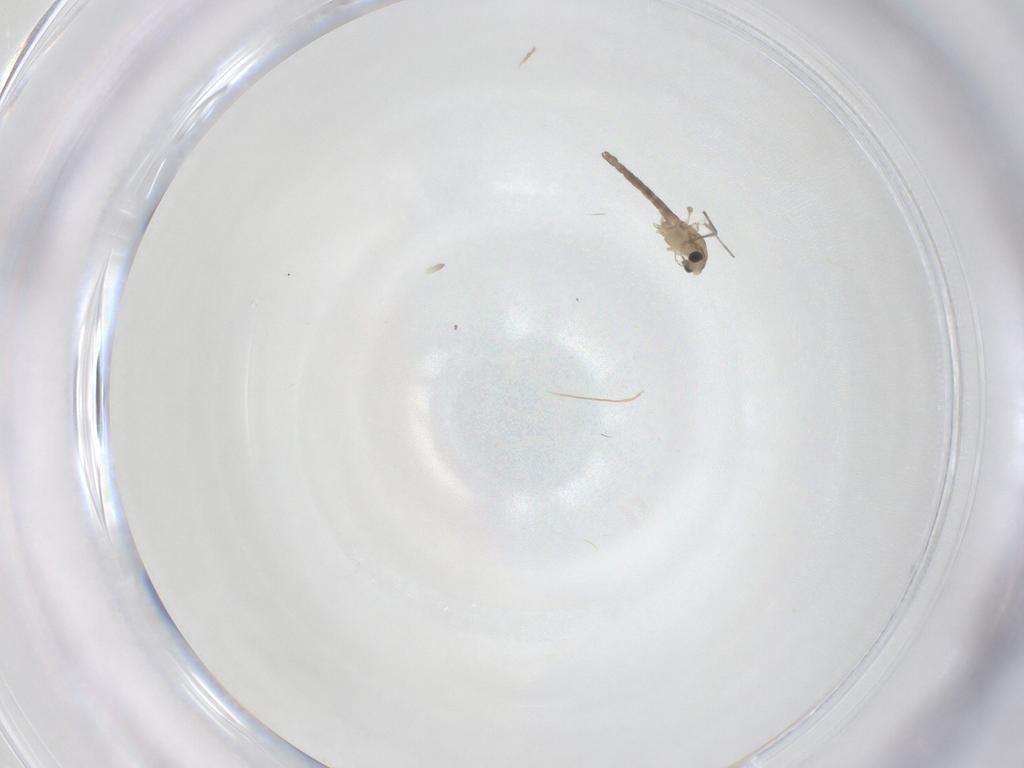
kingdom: Animalia
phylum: Arthropoda
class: Insecta
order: Diptera
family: Chironomidae
